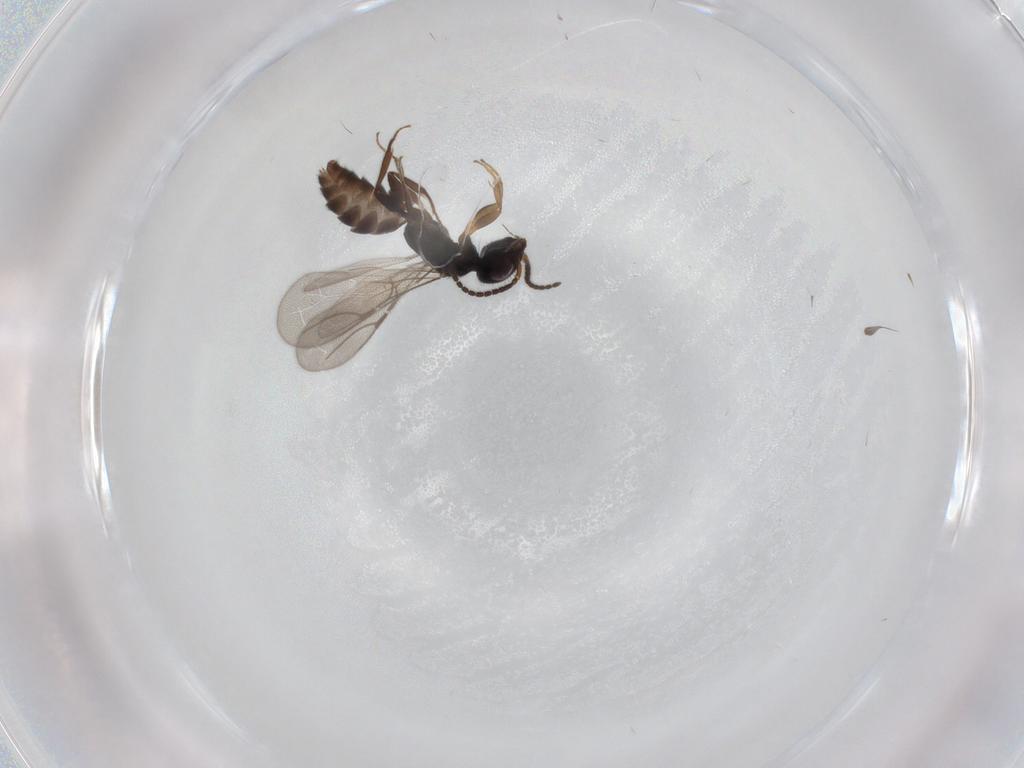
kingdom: Animalia
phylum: Arthropoda
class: Insecta
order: Hymenoptera
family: Bethylidae
